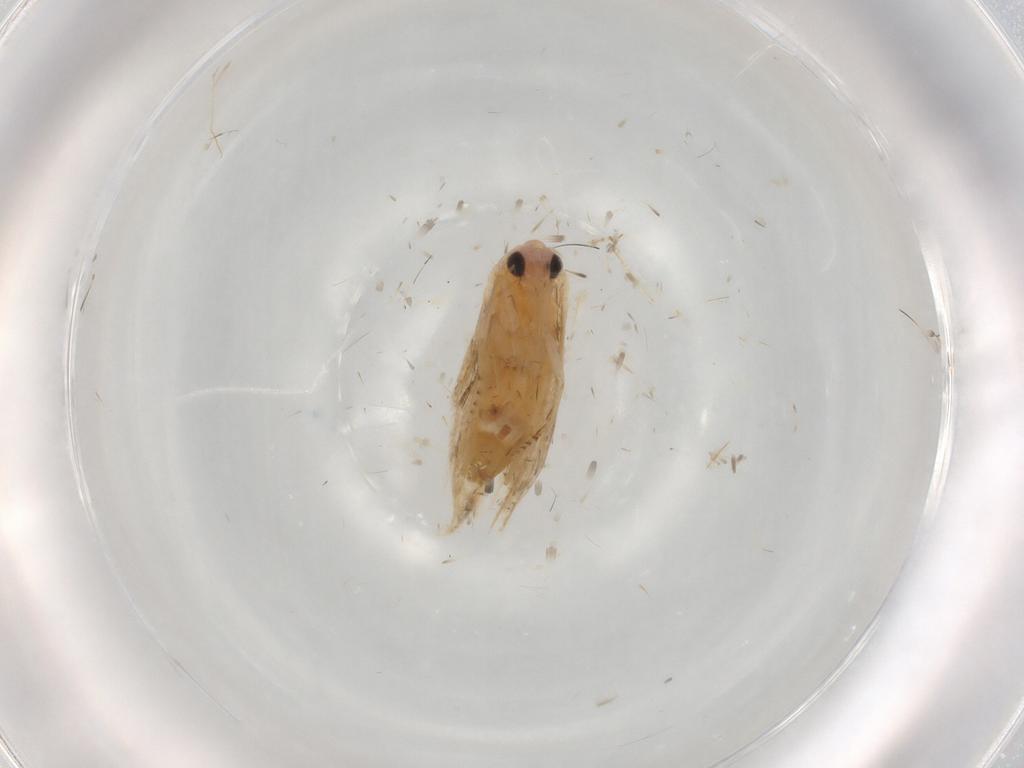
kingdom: Animalia
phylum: Arthropoda
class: Insecta
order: Lepidoptera
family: Noctuidae
